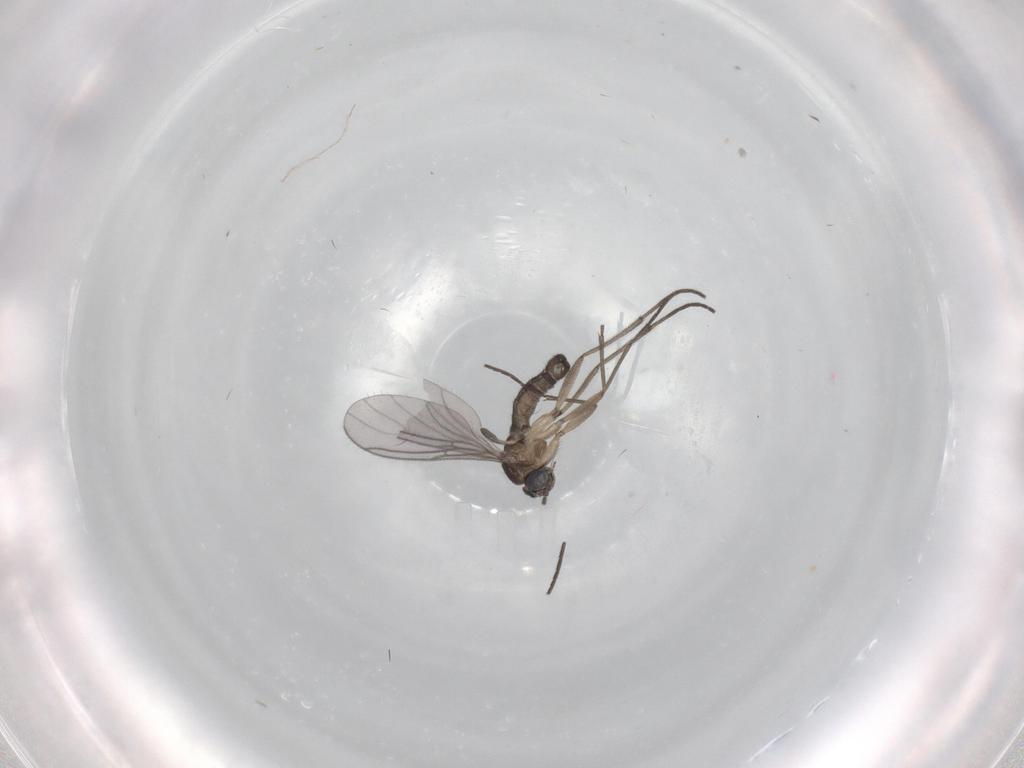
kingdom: Animalia
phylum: Arthropoda
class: Insecta
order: Diptera
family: Sciaridae
